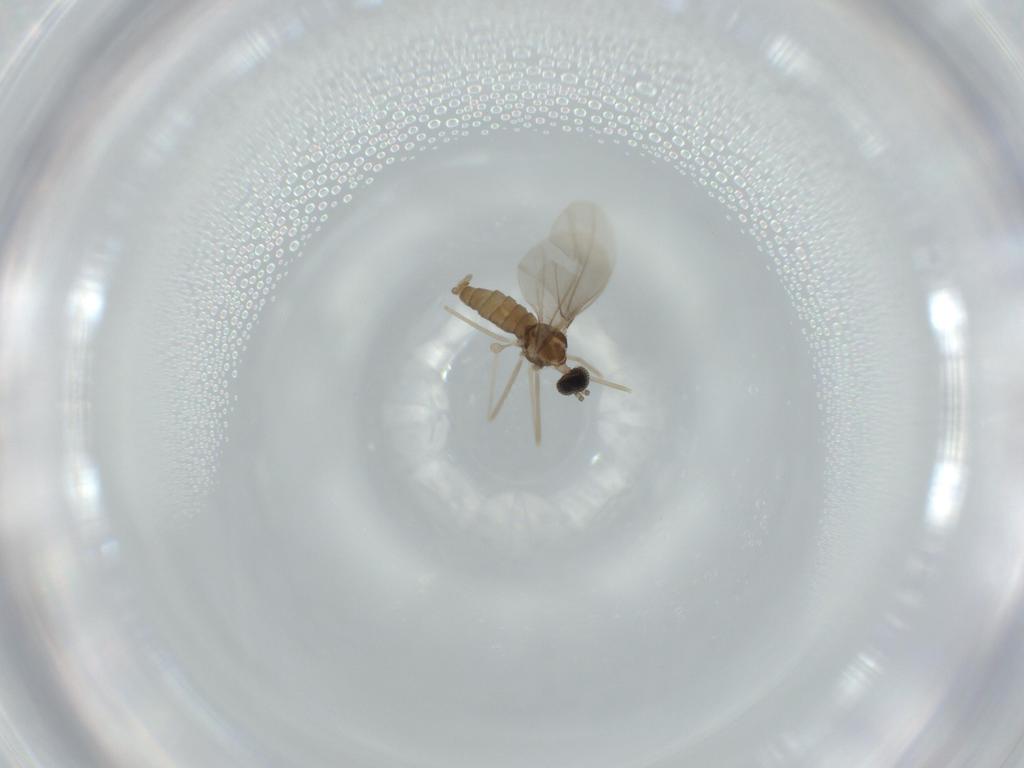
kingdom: Animalia
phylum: Arthropoda
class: Insecta
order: Diptera
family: Cecidomyiidae
